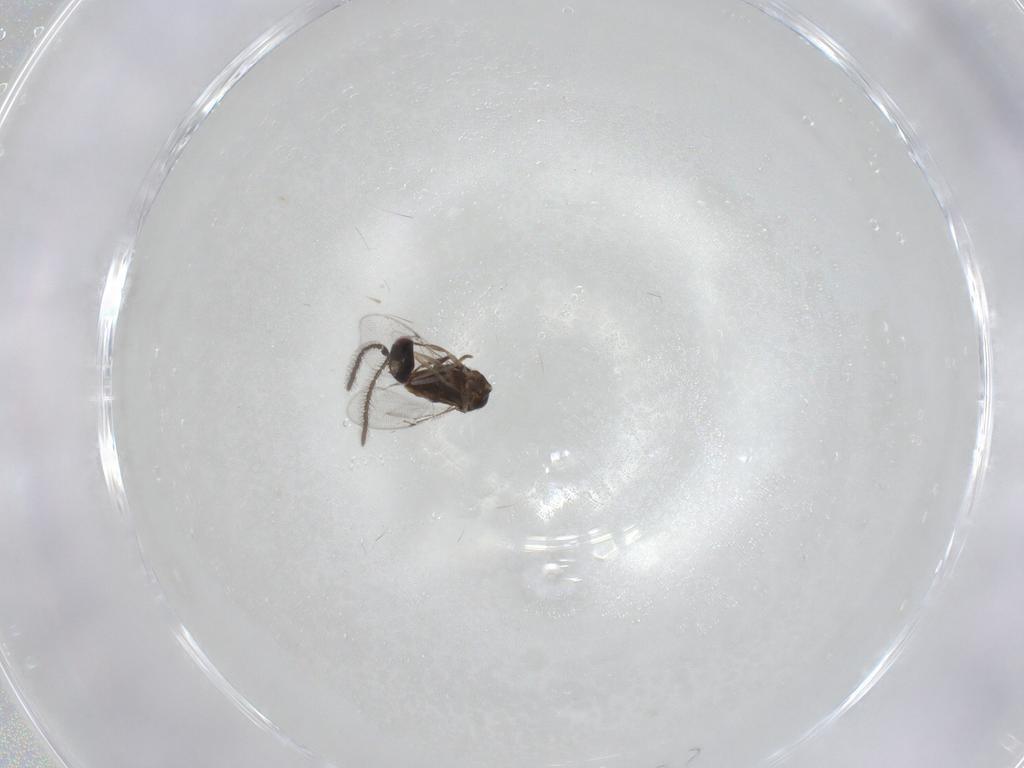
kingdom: Animalia
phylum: Arthropoda
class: Insecta
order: Hymenoptera
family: Encyrtidae
